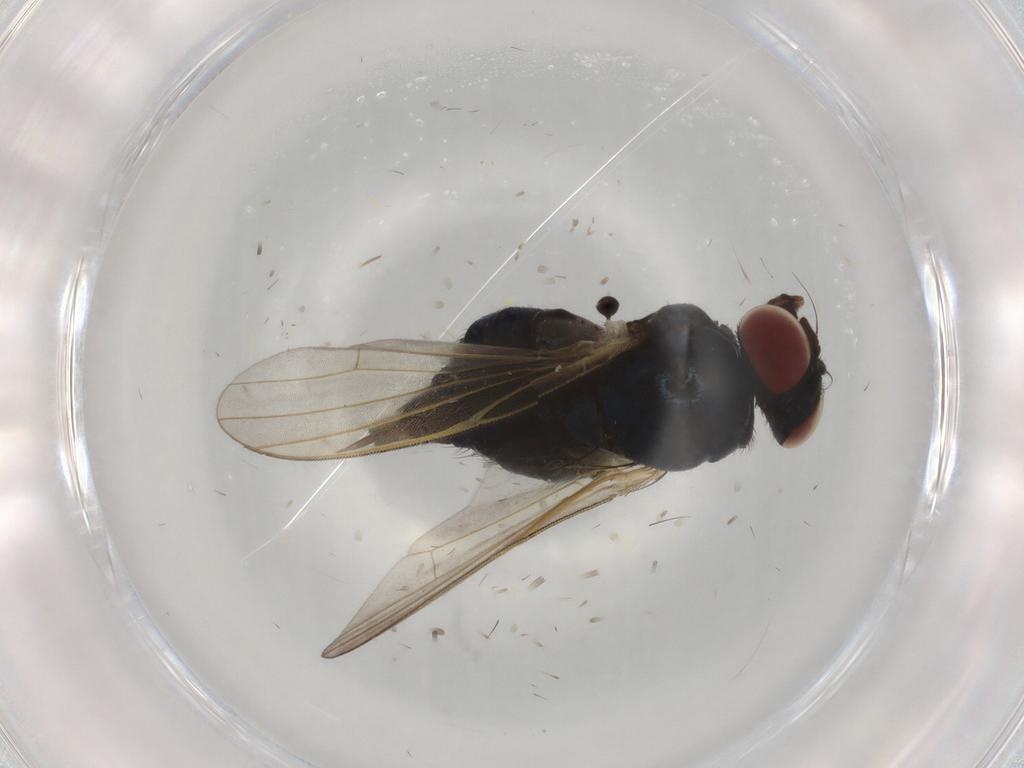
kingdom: Animalia
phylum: Arthropoda
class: Insecta
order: Diptera
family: Lonchaeidae
